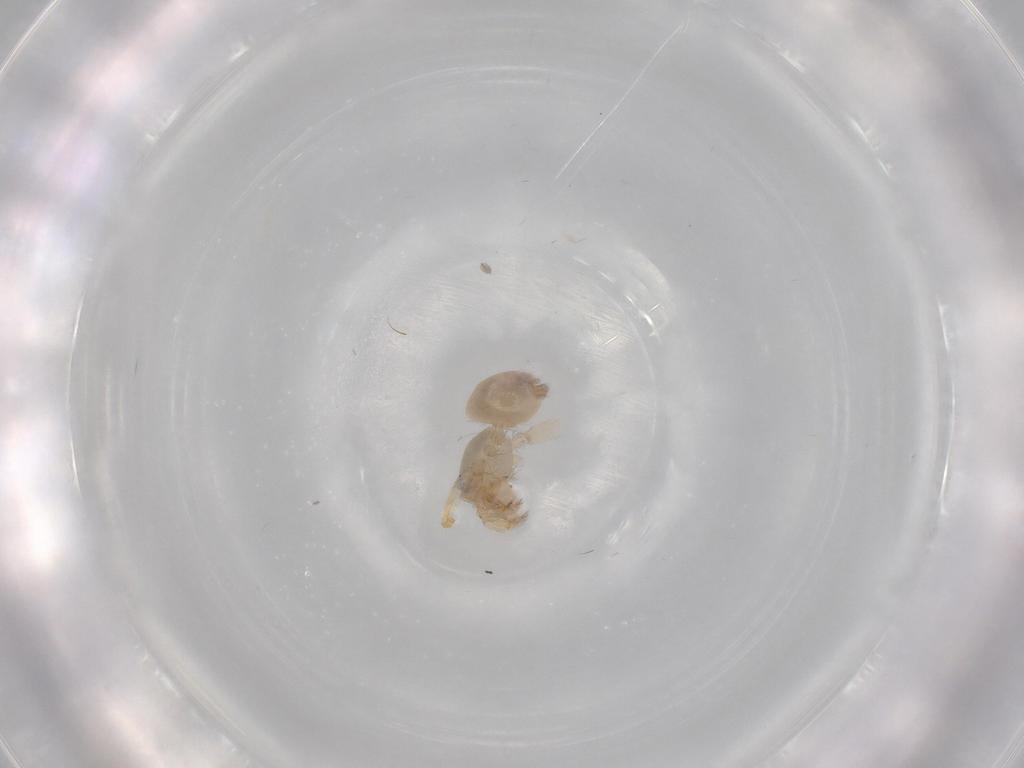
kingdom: Animalia
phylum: Arthropoda
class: Arachnida
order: Araneae
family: Oonopidae
